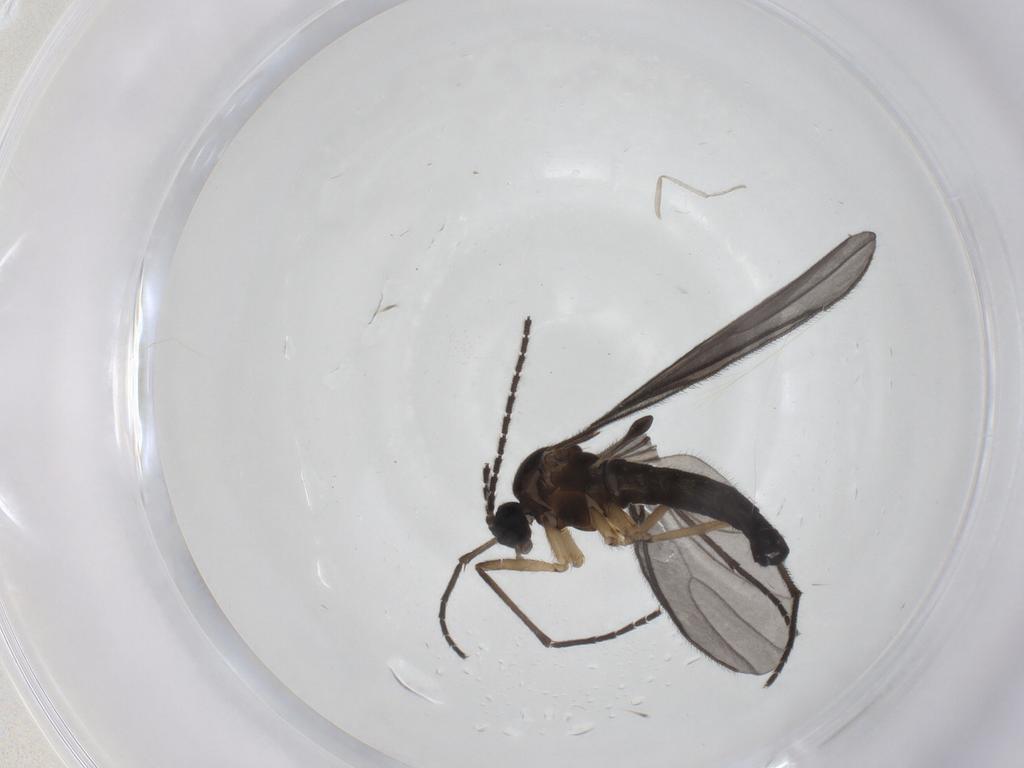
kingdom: Animalia
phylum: Arthropoda
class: Insecta
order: Diptera
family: Sciaridae
